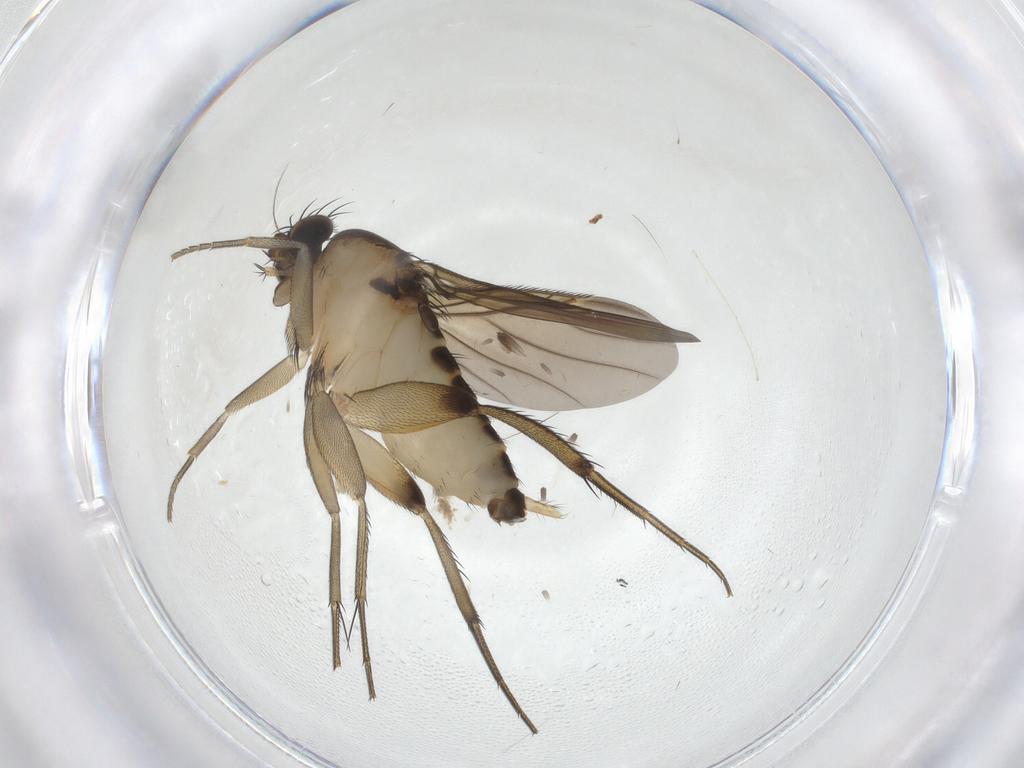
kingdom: Animalia
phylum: Arthropoda
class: Insecta
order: Diptera
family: Phoridae
